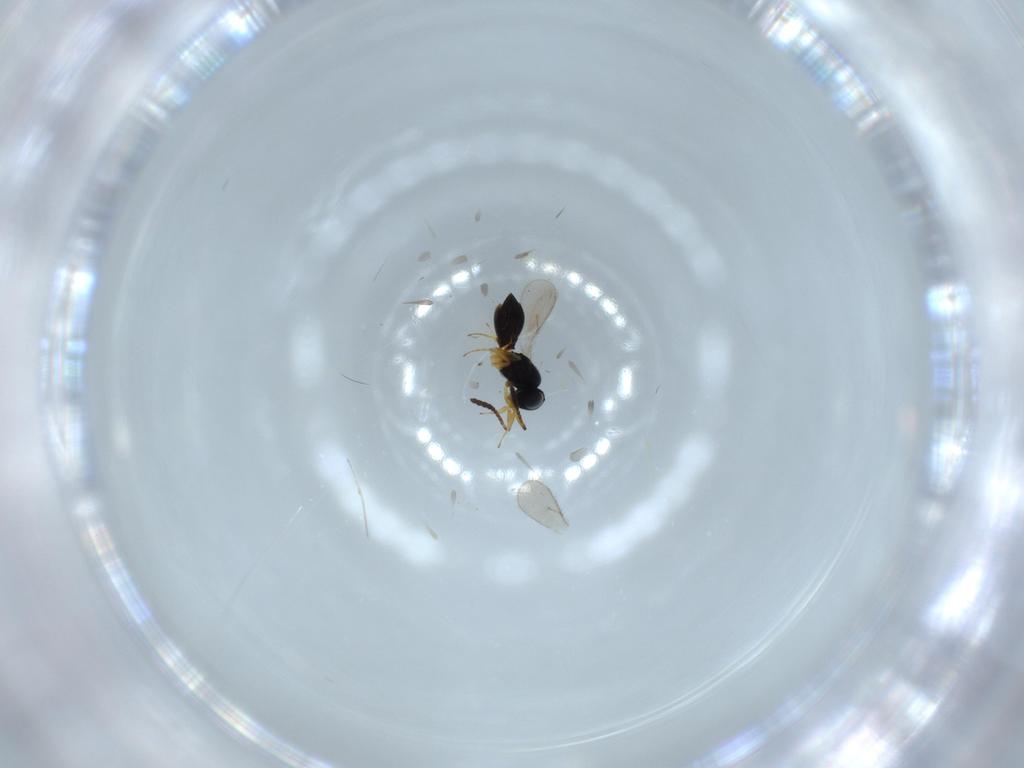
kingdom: Animalia
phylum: Arthropoda
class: Insecta
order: Hymenoptera
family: Scelionidae
